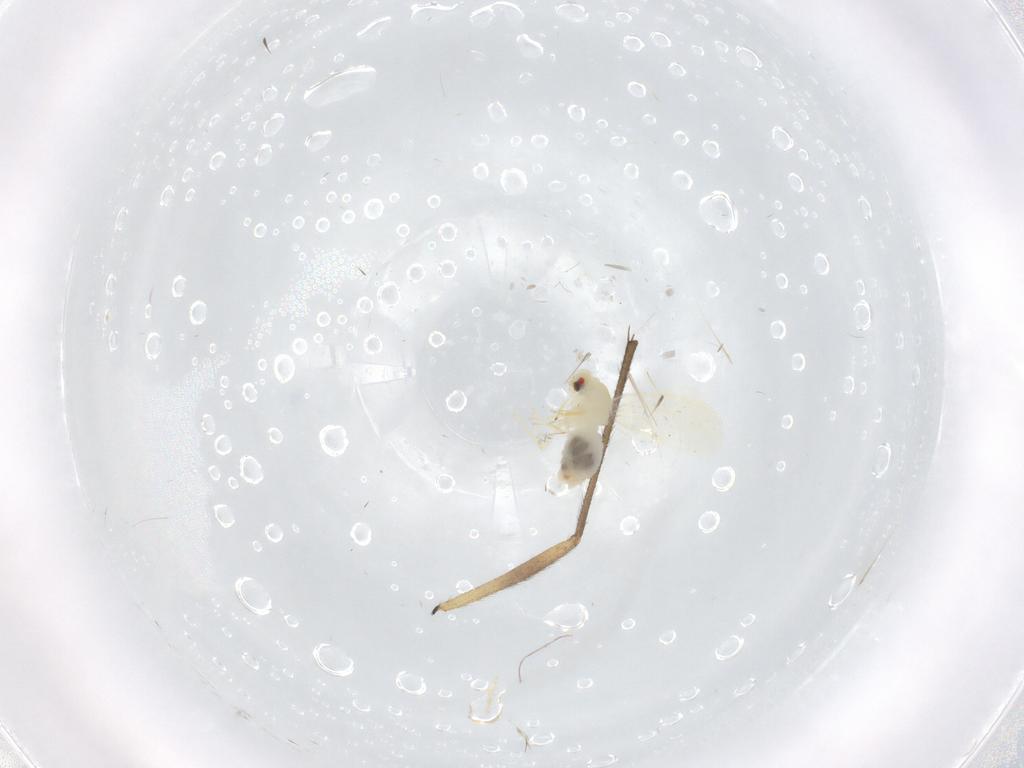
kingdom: Animalia
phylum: Arthropoda
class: Insecta
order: Hemiptera
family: Aleyrodidae
